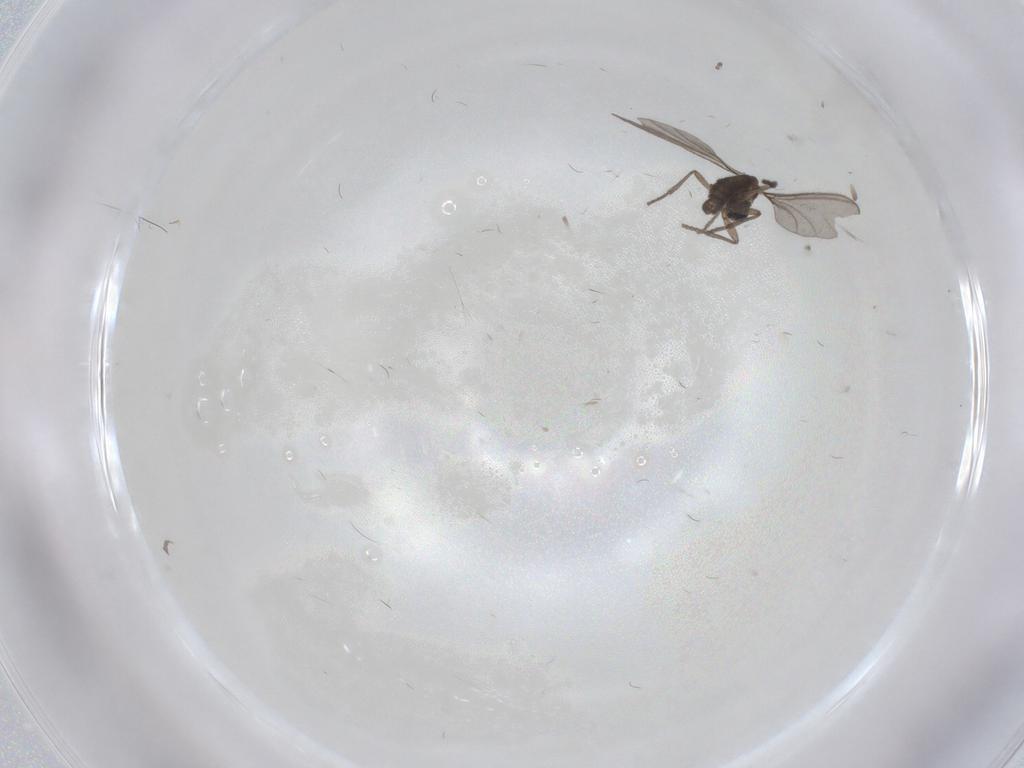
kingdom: Animalia
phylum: Arthropoda
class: Insecta
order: Diptera
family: Psychodidae
